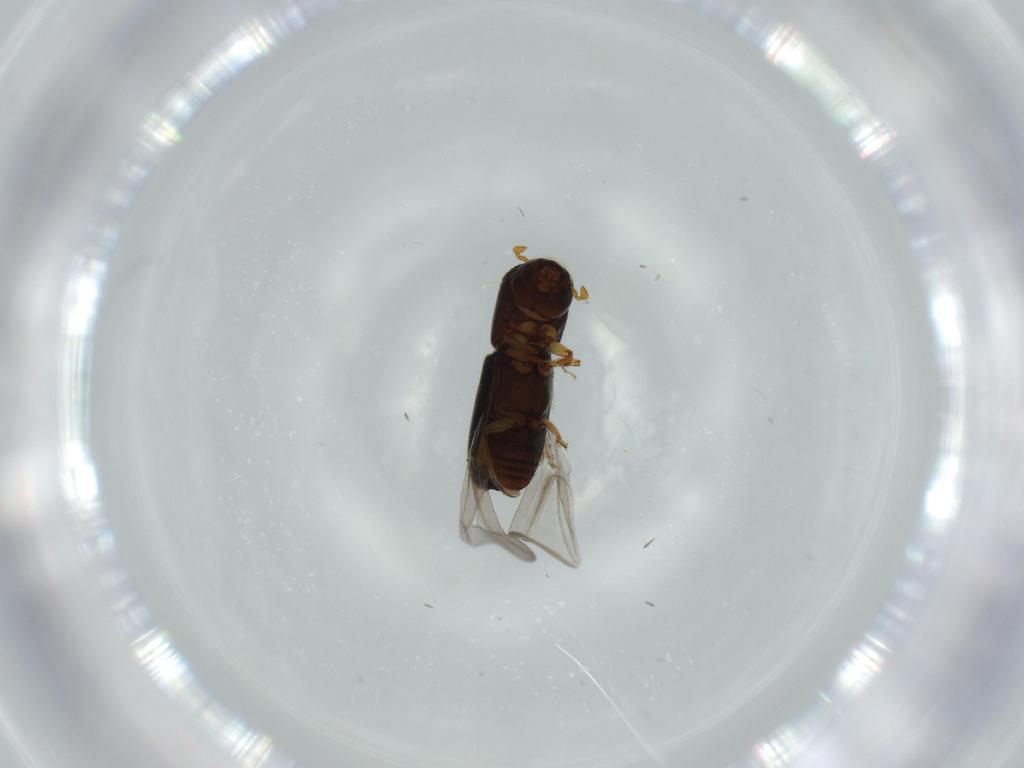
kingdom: Animalia
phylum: Arthropoda
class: Insecta
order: Coleoptera
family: Curculionidae
